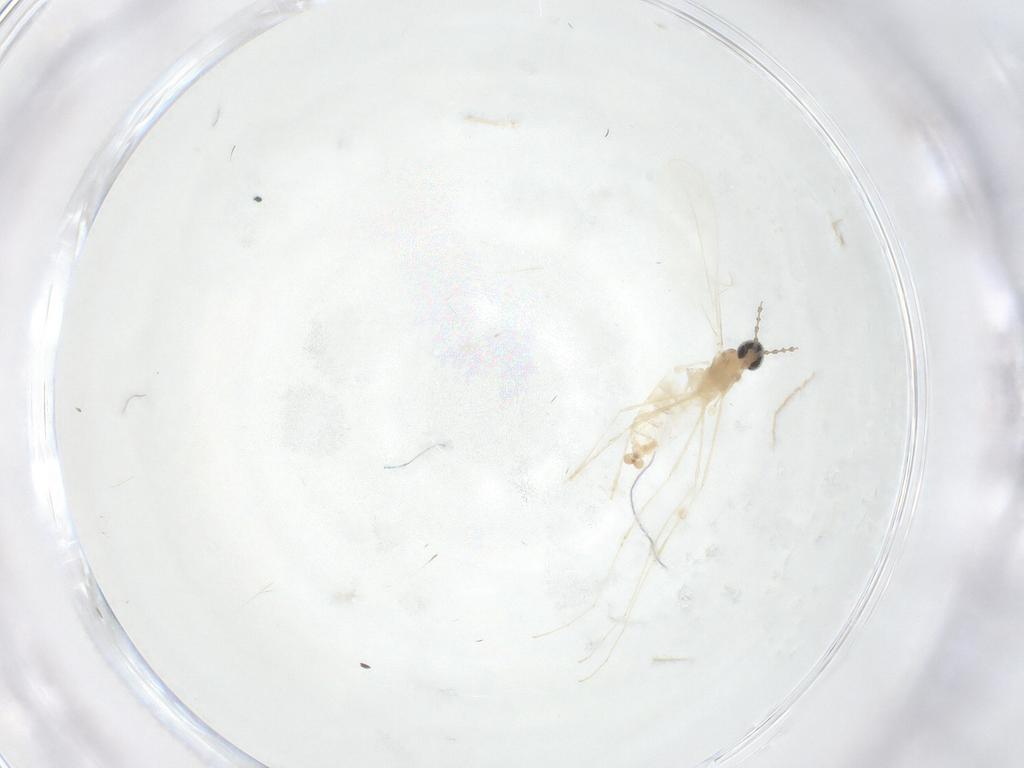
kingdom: Animalia
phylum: Arthropoda
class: Insecta
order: Diptera
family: Cecidomyiidae
